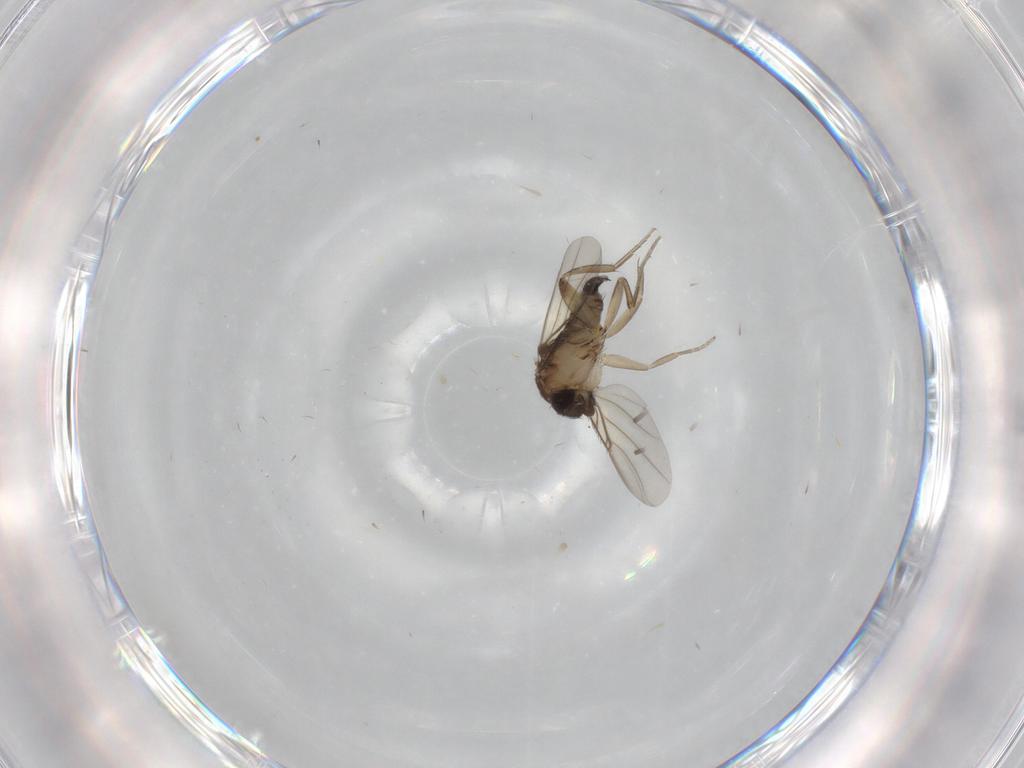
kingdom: Animalia
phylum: Arthropoda
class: Insecta
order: Diptera
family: Phoridae
